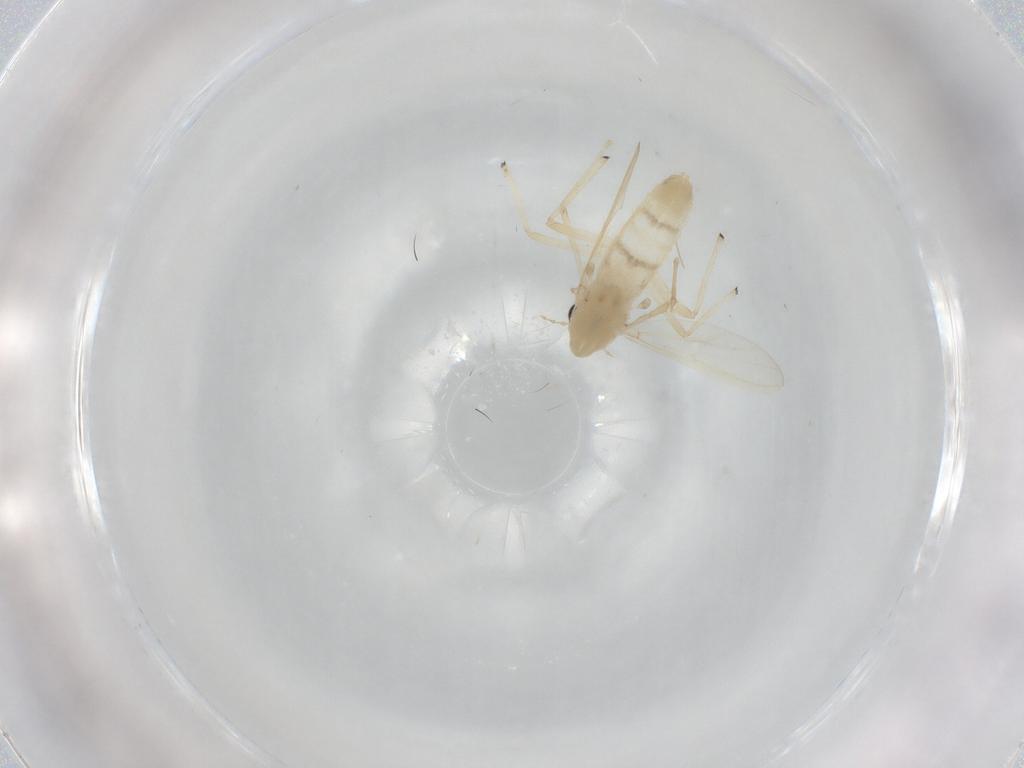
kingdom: Animalia
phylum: Arthropoda
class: Insecta
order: Diptera
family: Chironomidae
